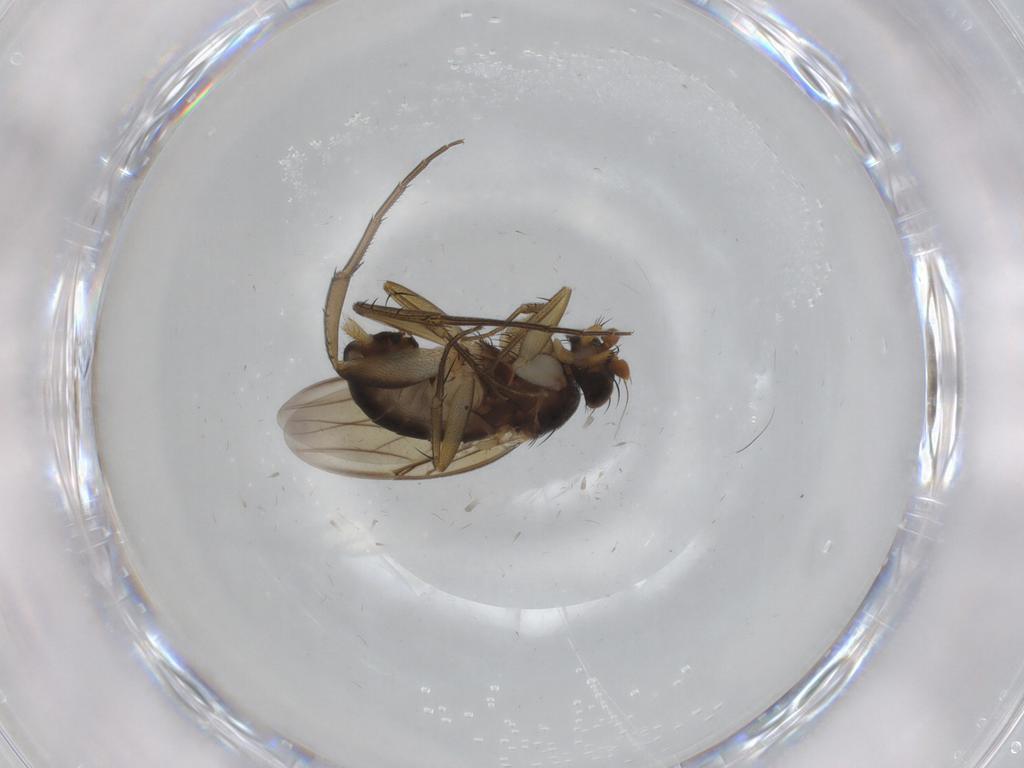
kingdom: Animalia
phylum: Arthropoda
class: Insecta
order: Diptera
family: Phoridae
